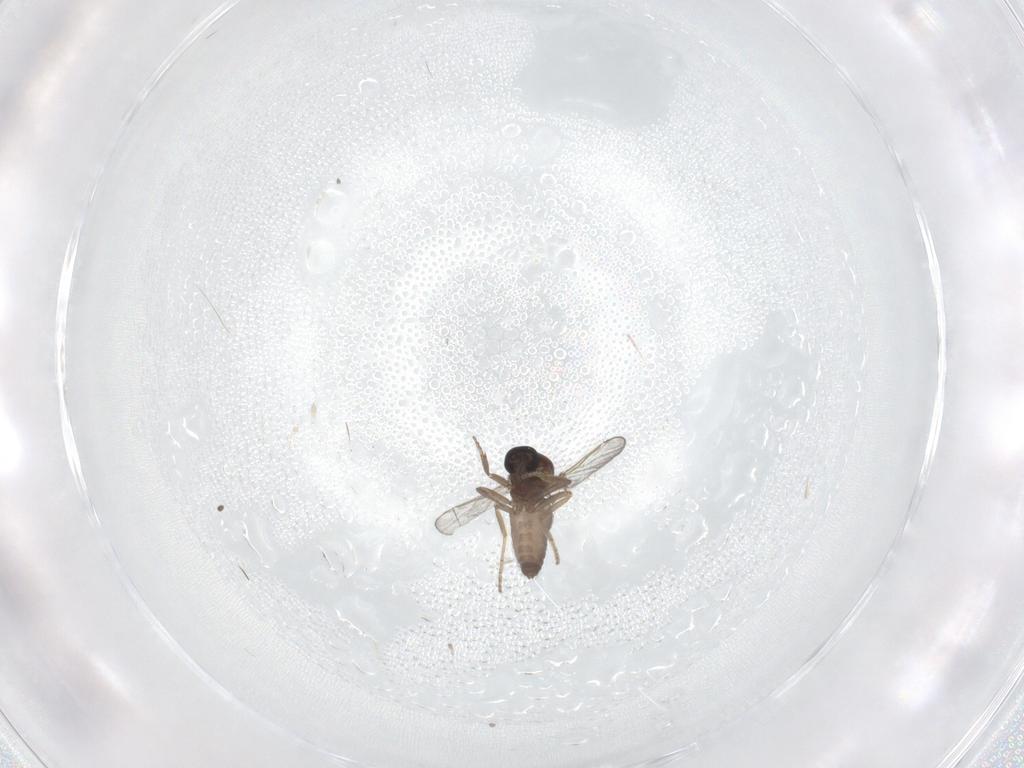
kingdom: Animalia
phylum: Arthropoda
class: Insecta
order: Diptera
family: Ceratopogonidae
